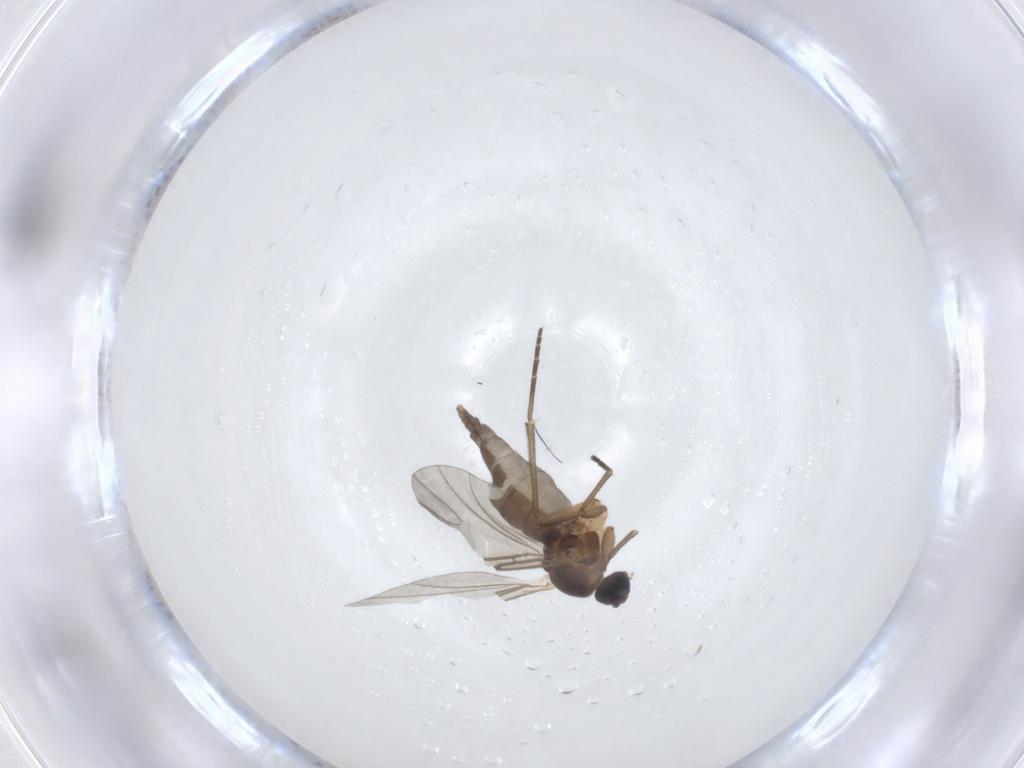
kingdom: Animalia
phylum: Arthropoda
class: Insecta
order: Diptera
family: Sciaridae
